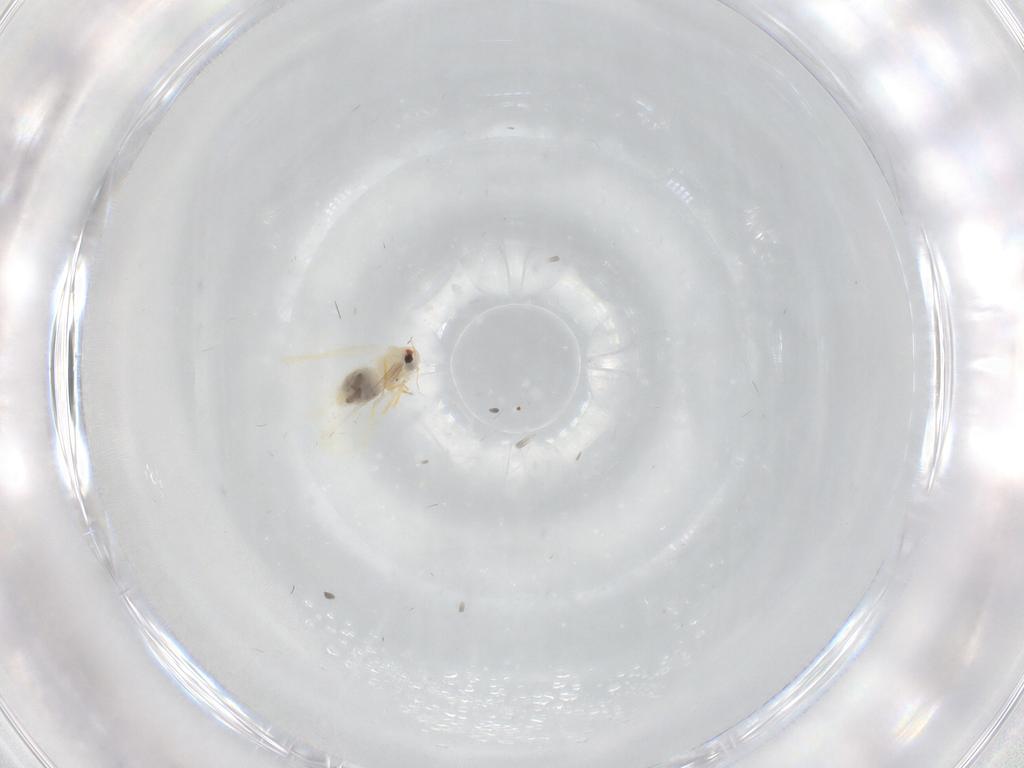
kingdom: Animalia
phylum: Arthropoda
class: Insecta
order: Hemiptera
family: Aleyrodidae
